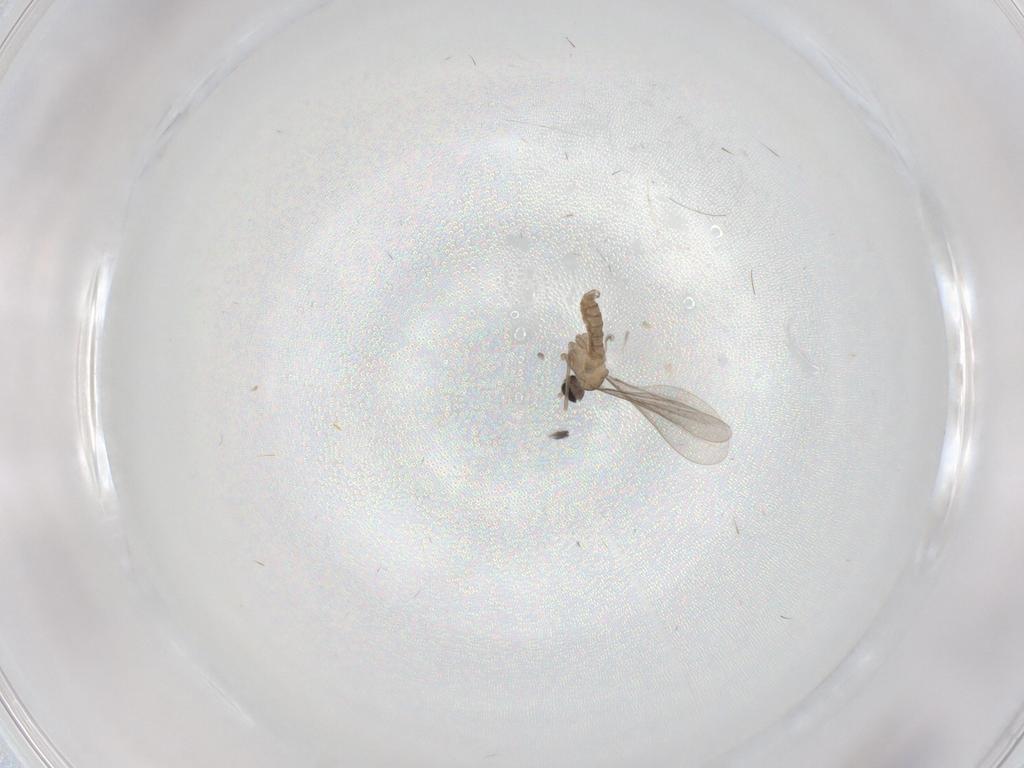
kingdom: Animalia
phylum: Arthropoda
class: Insecta
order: Diptera
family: Cecidomyiidae
